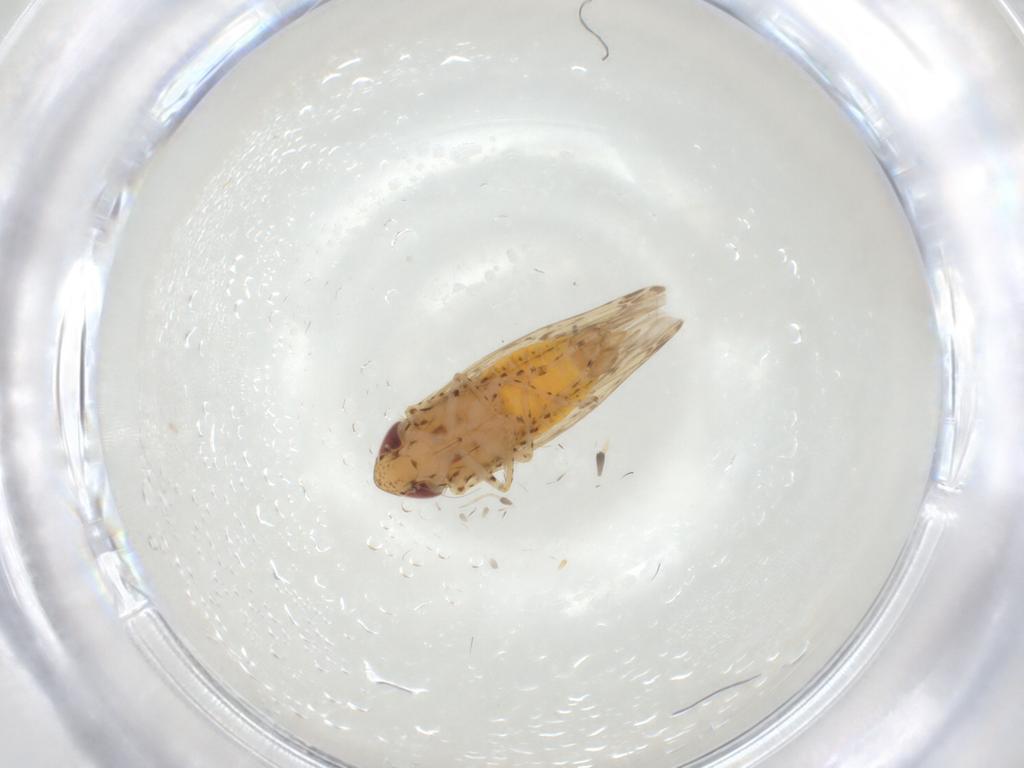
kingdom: Animalia
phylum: Arthropoda
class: Insecta
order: Hemiptera
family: Cicadellidae
